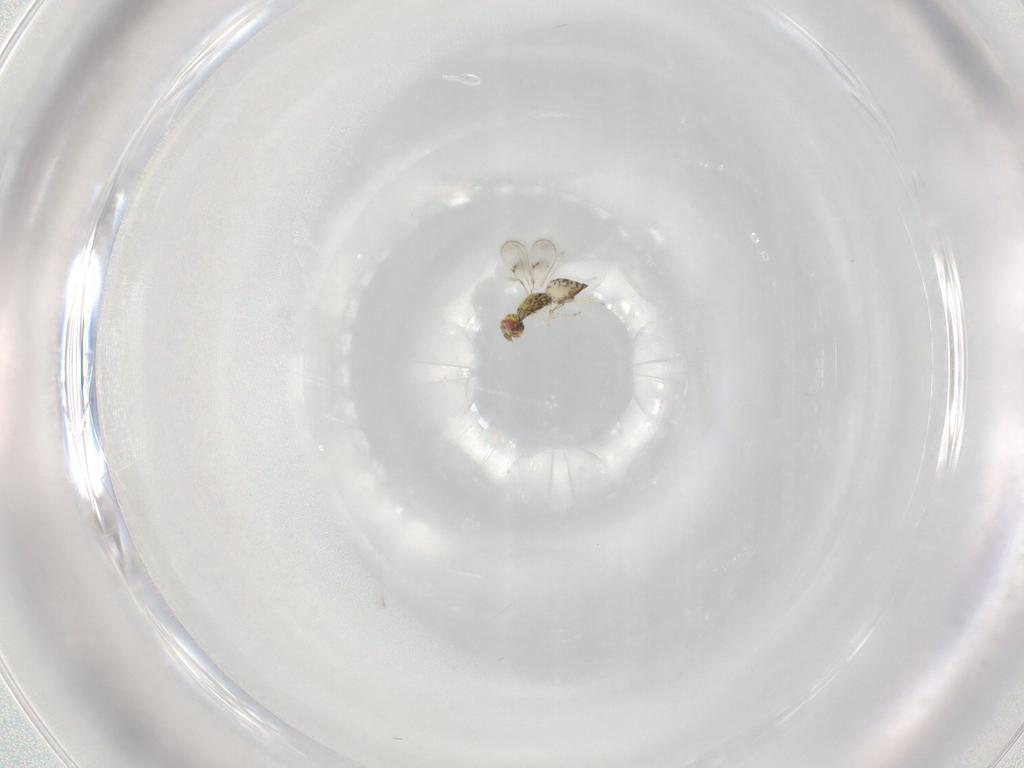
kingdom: Animalia
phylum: Arthropoda
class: Insecta
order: Hymenoptera
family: Eulophidae
